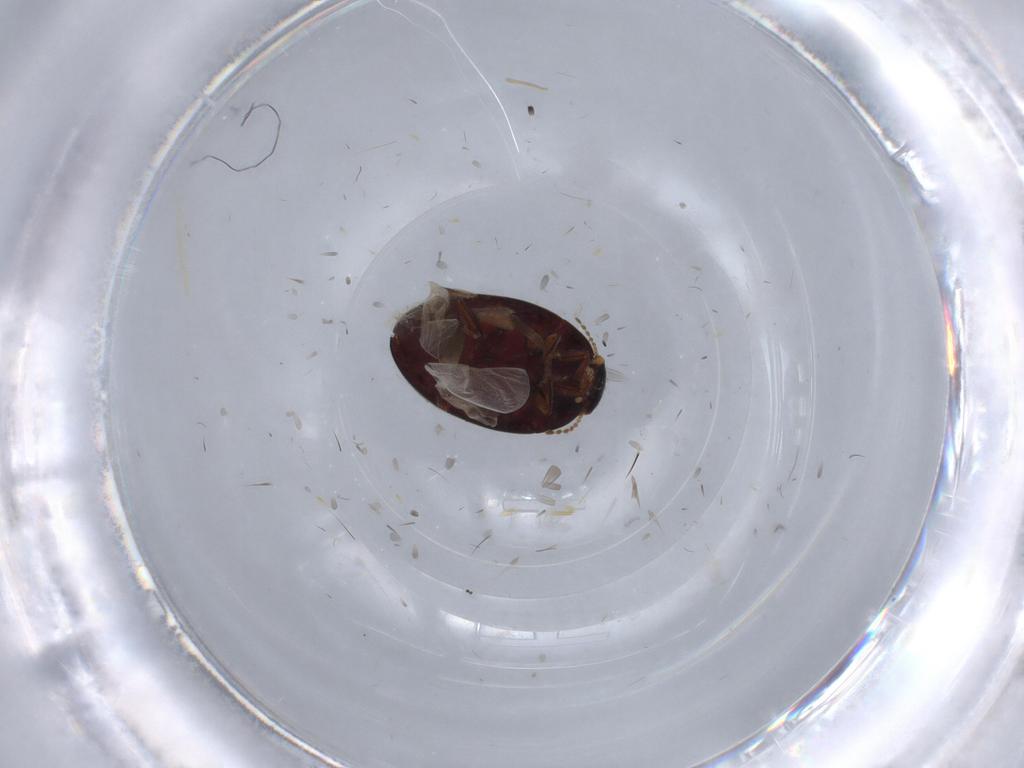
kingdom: Animalia
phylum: Arthropoda
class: Insecta
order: Coleoptera
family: Limnichidae
